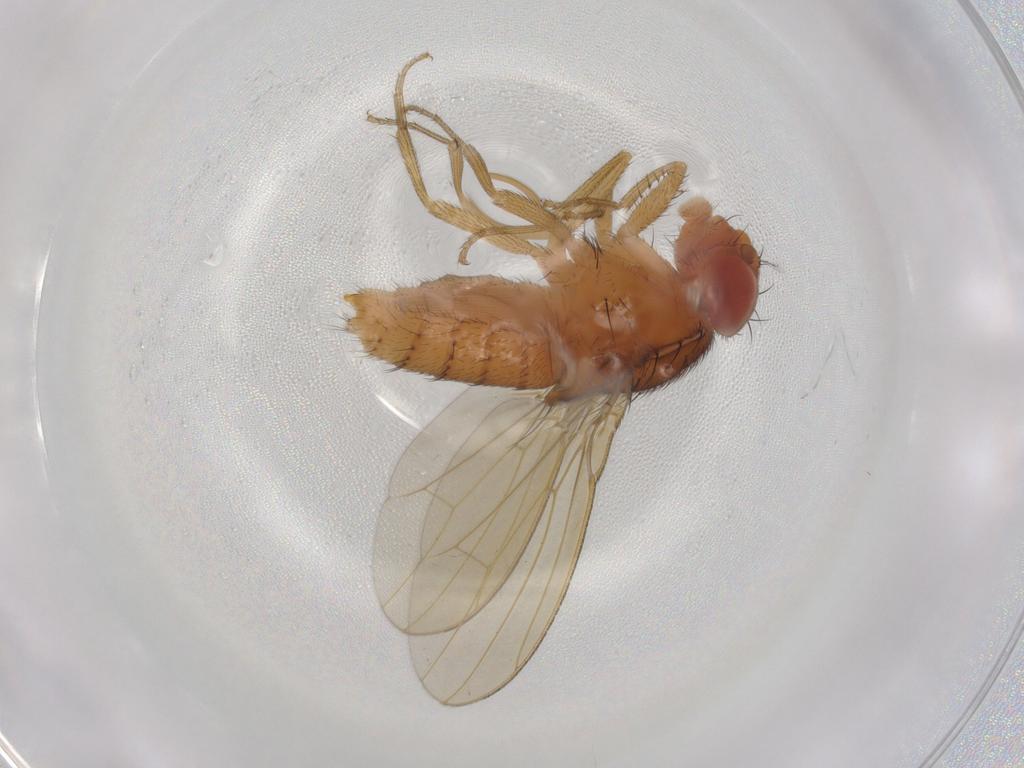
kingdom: Animalia
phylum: Arthropoda
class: Insecta
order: Diptera
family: Drosophilidae
